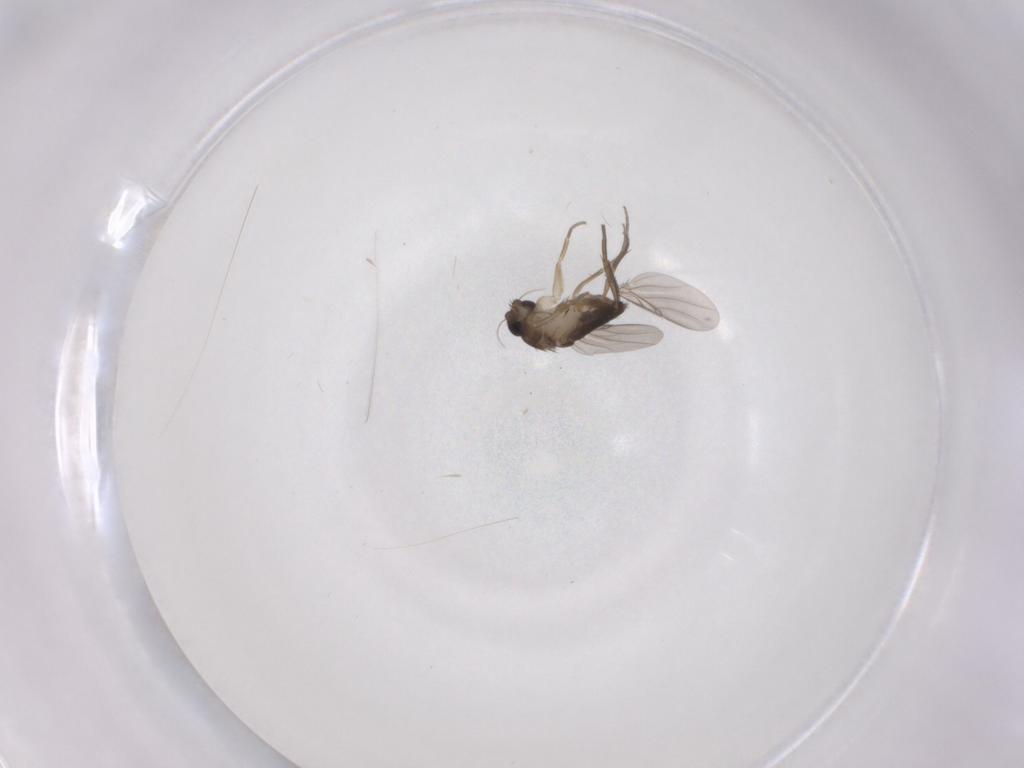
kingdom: Animalia
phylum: Arthropoda
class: Insecta
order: Diptera
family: Phoridae
